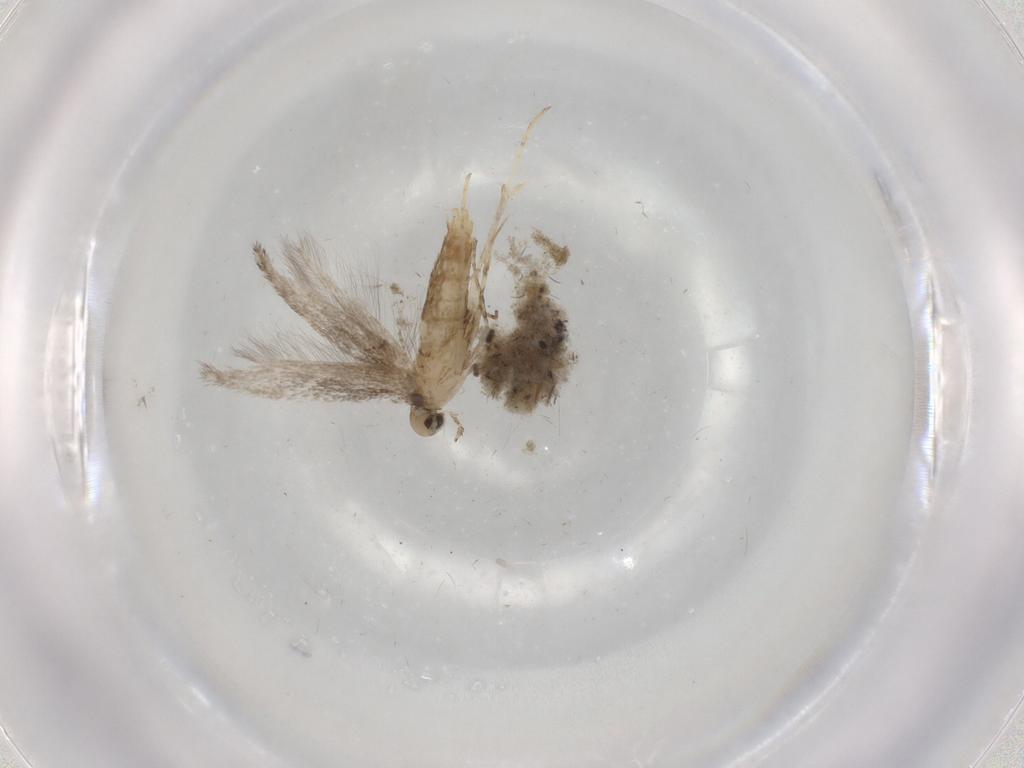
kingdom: Animalia
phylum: Arthropoda
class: Insecta
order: Lepidoptera
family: Gracillariidae
